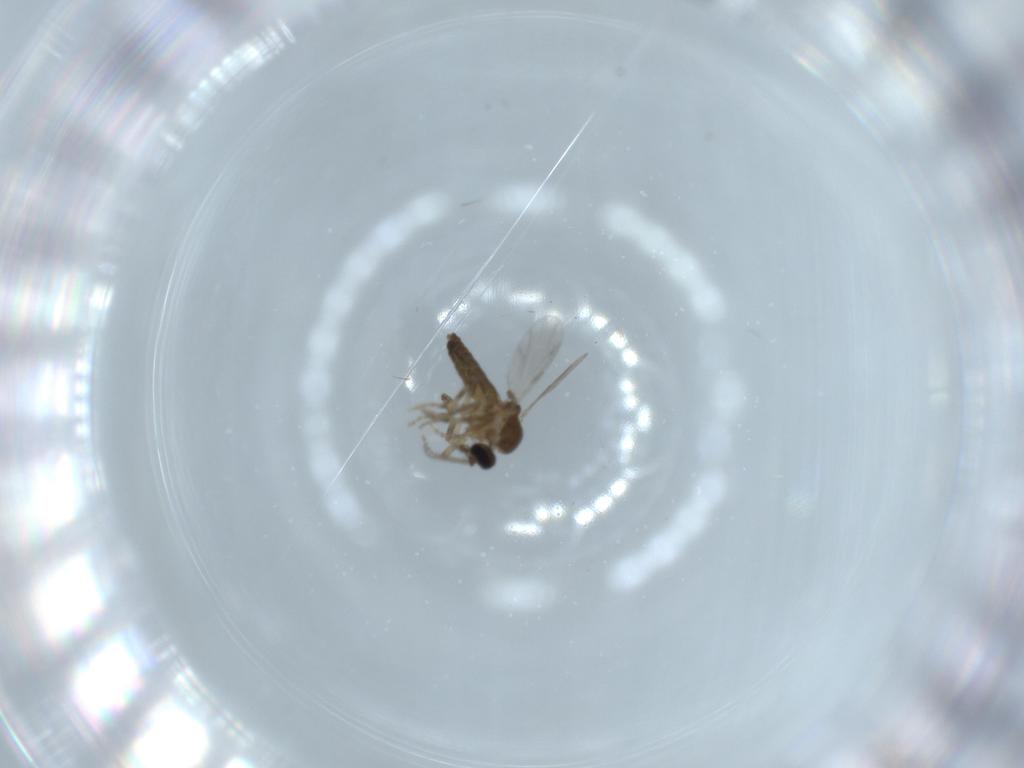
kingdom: Animalia
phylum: Arthropoda
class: Insecta
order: Diptera
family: Ceratopogonidae
